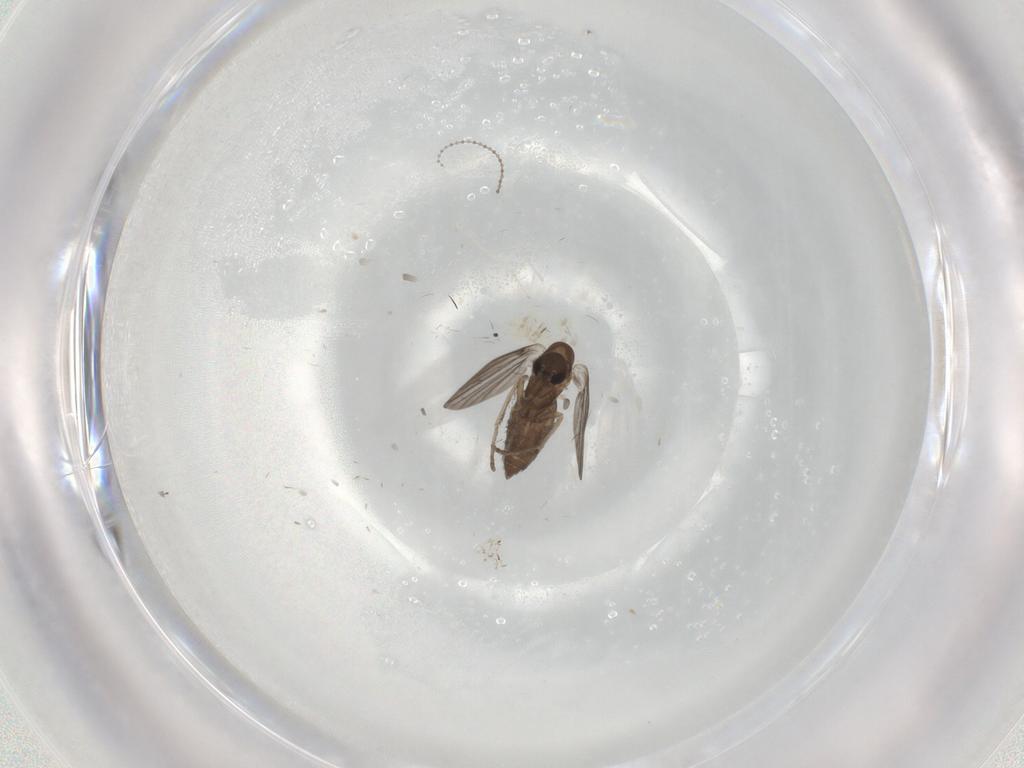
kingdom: Animalia
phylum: Arthropoda
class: Insecta
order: Diptera
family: Cecidomyiidae
